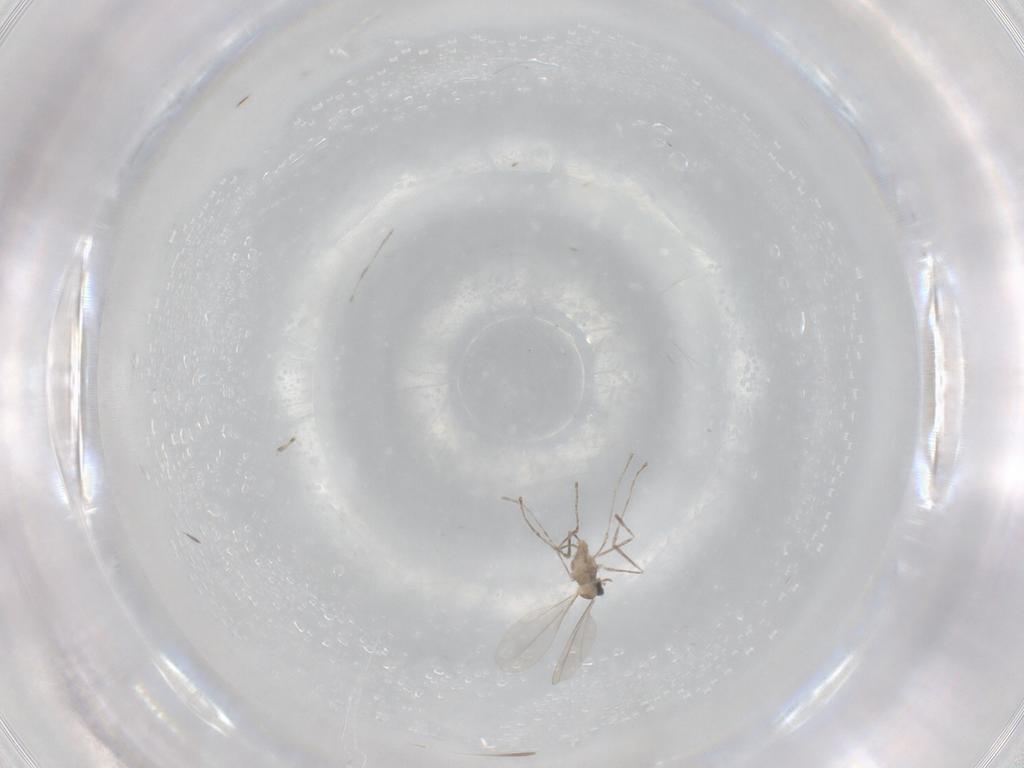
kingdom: Animalia
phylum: Arthropoda
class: Insecta
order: Diptera
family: Cecidomyiidae
